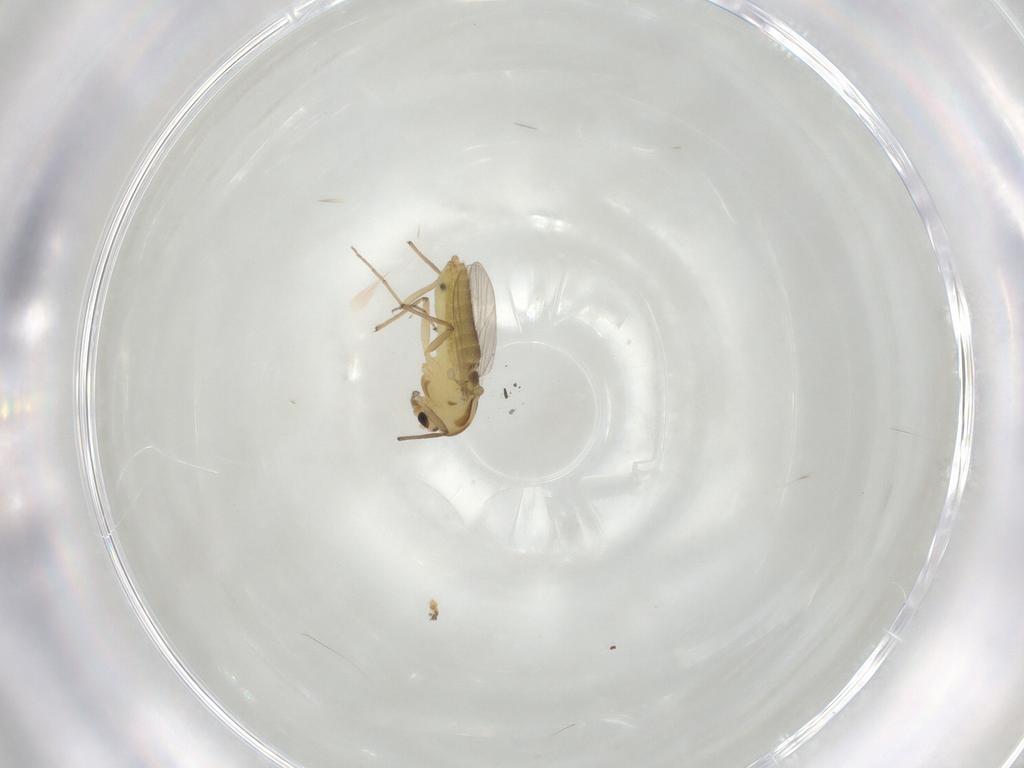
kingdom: Animalia
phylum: Arthropoda
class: Insecta
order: Diptera
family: Chironomidae
